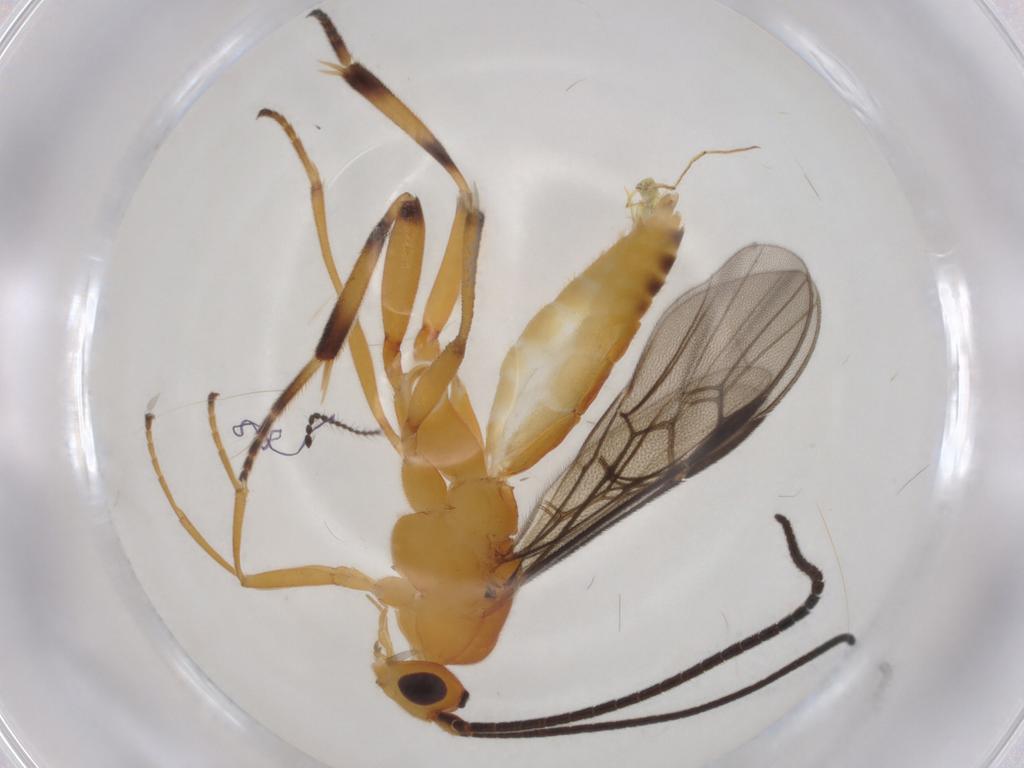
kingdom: Animalia
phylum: Arthropoda
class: Insecta
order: Hymenoptera
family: Braconidae
